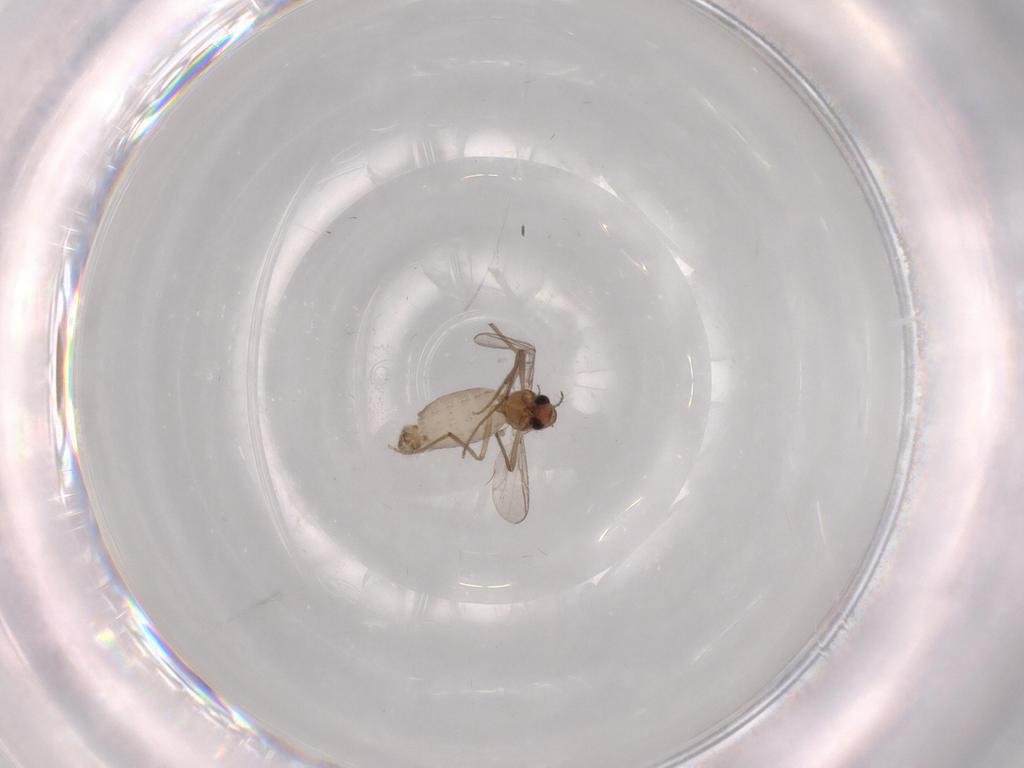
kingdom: Animalia
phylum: Arthropoda
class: Insecta
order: Diptera
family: Chironomidae
